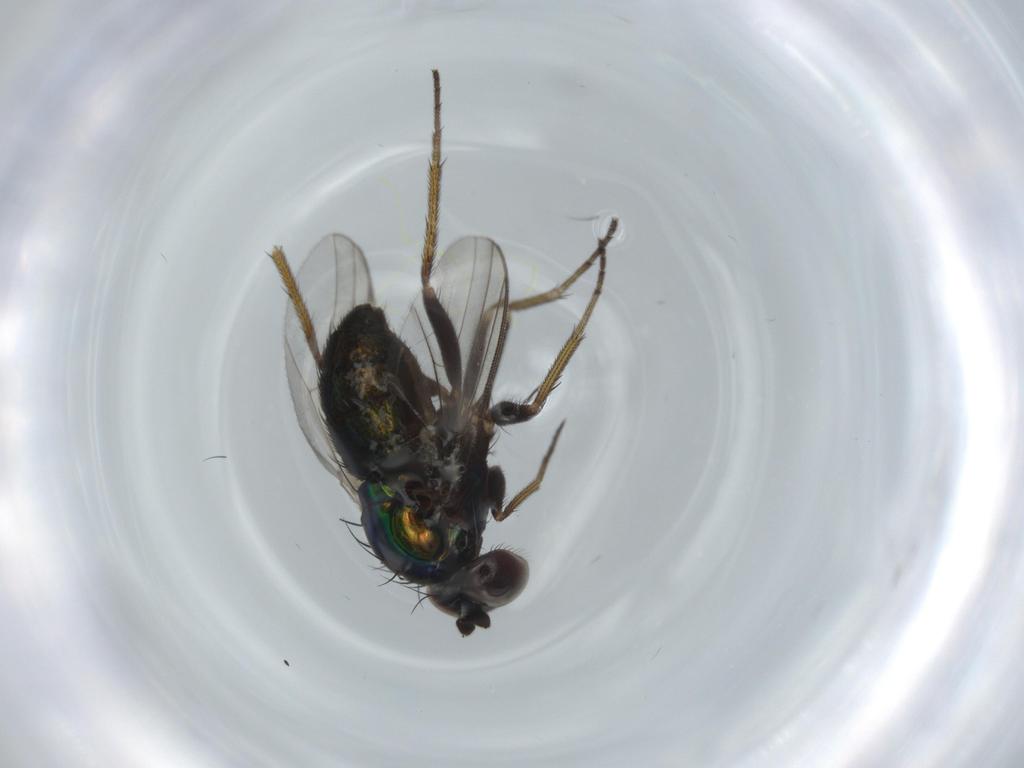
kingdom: Animalia
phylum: Arthropoda
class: Insecta
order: Diptera
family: Dolichopodidae
